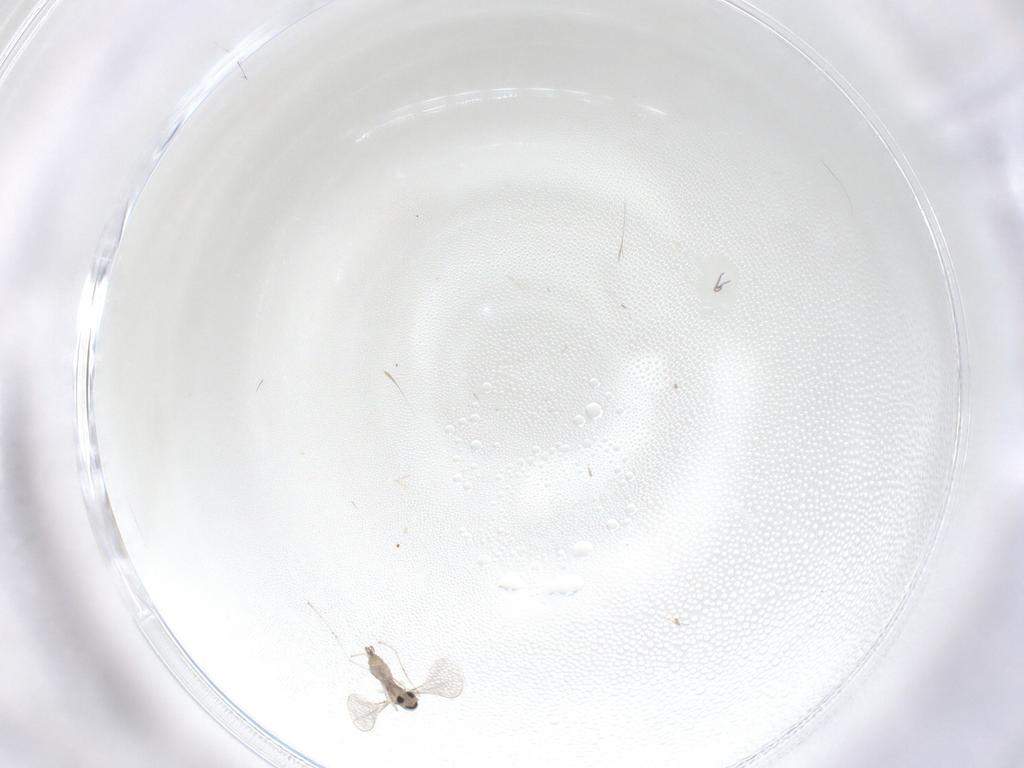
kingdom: Animalia
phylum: Arthropoda
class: Insecta
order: Diptera
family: Cecidomyiidae
